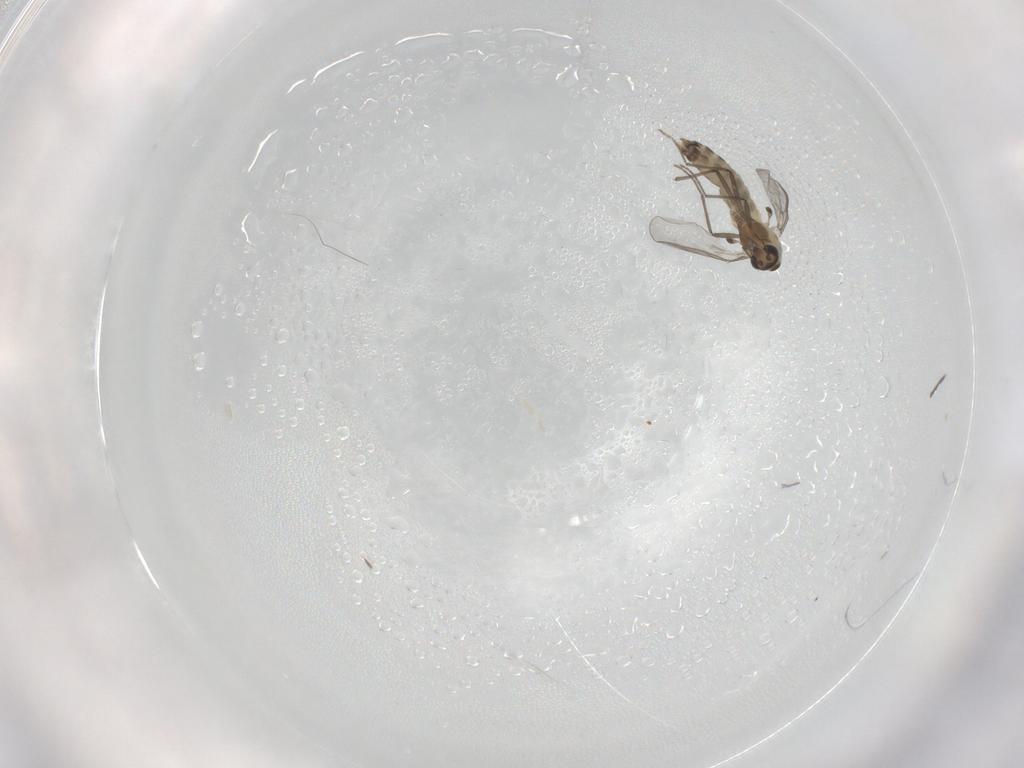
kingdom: Animalia
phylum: Arthropoda
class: Insecta
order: Diptera
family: Chironomidae
